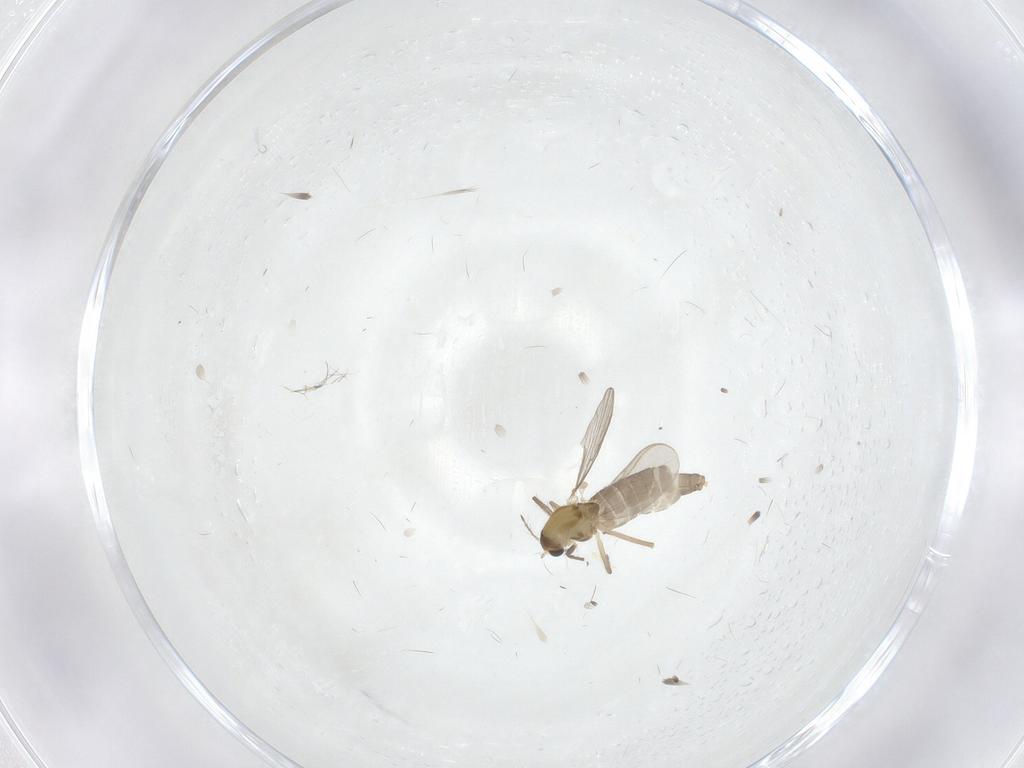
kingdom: Animalia
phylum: Arthropoda
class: Insecta
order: Diptera
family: Chironomidae
